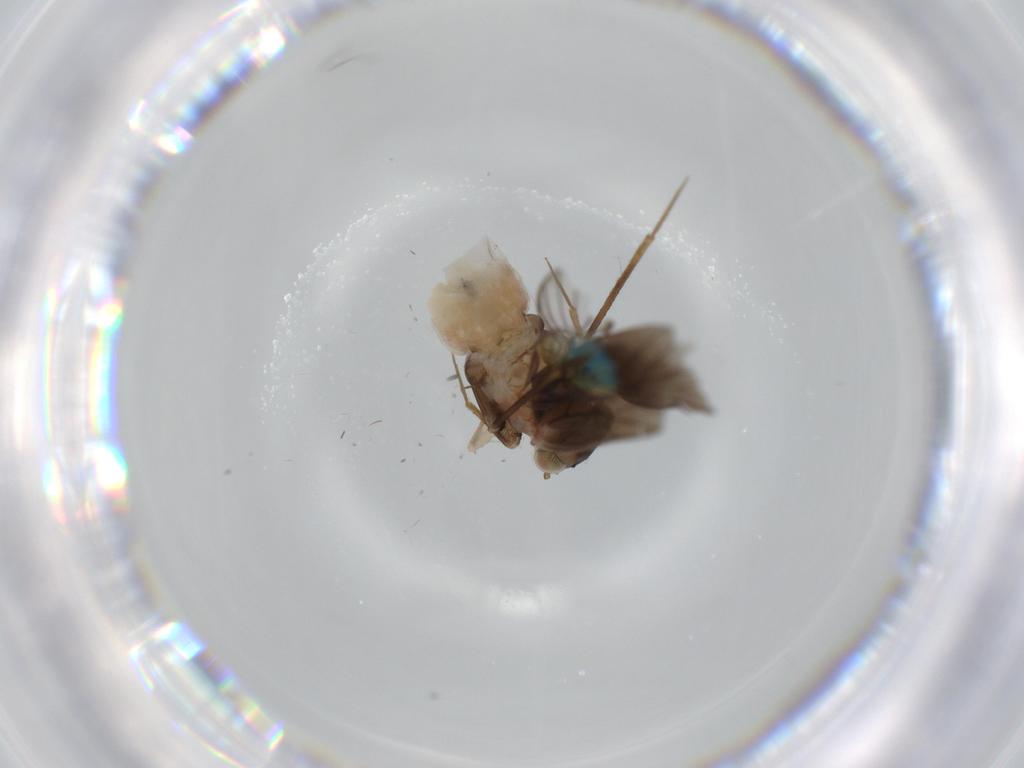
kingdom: Animalia
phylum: Arthropoda
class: Insecta
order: Psocodea
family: Lepidopsocidae
